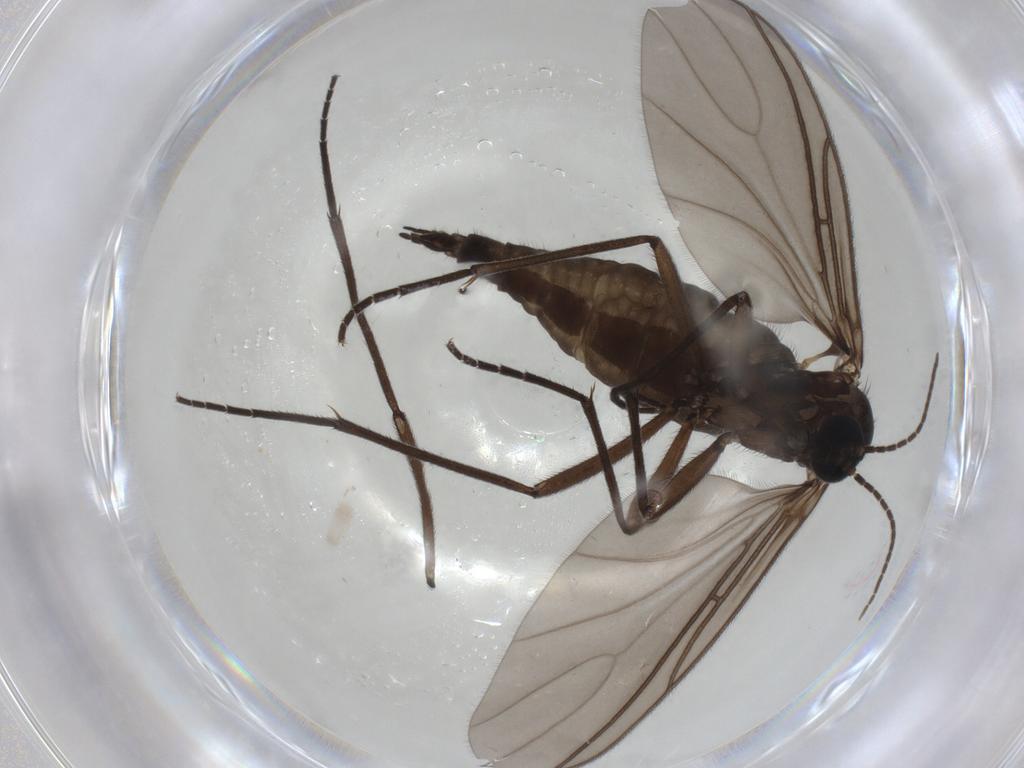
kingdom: Animalia
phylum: Arthropoda
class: Insecta
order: Diptera
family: Sciaridae
